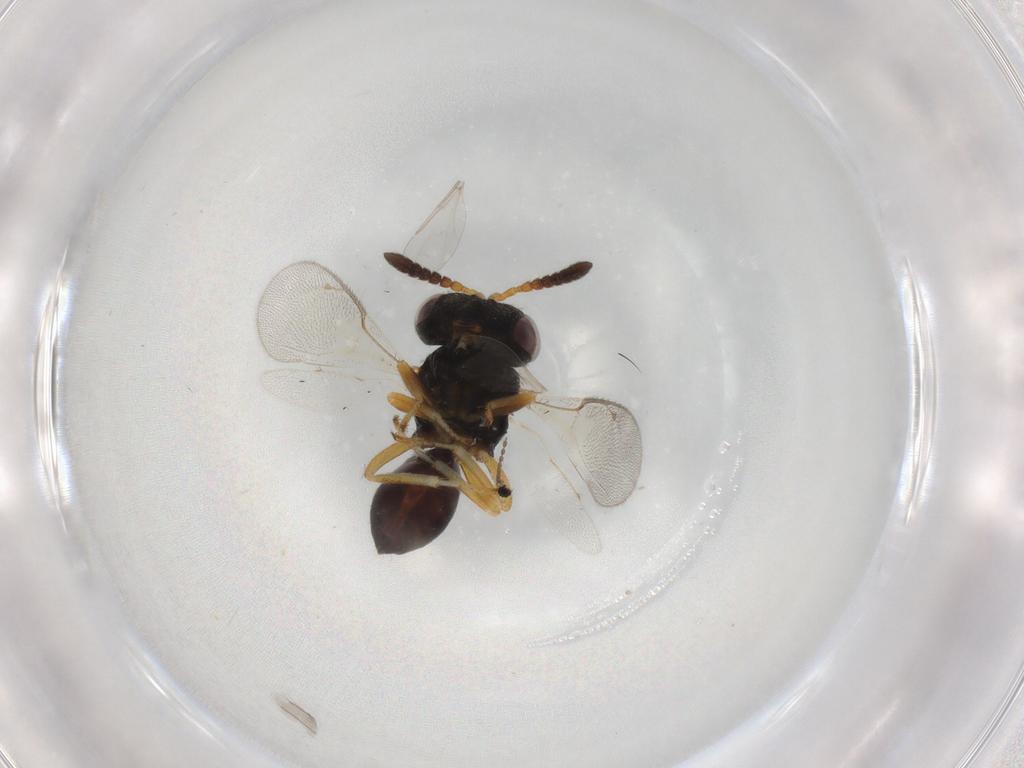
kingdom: Animalia
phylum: Arthropoda
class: Insecta
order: Hymenoptera
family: Pteromalidae
